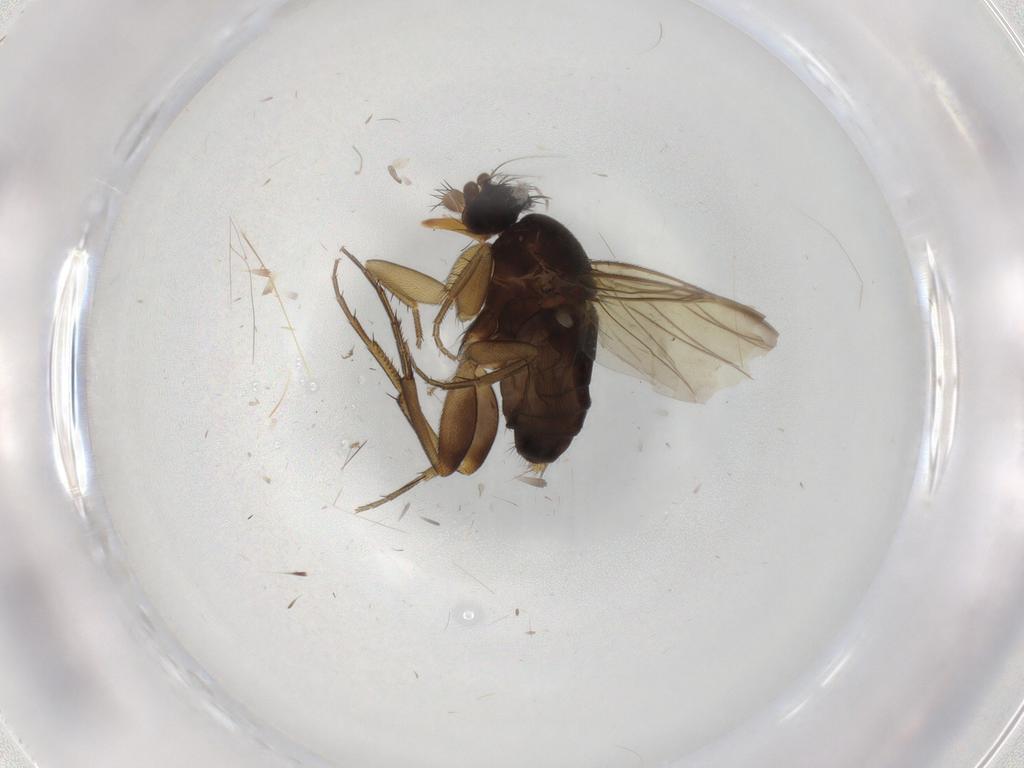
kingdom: Animalia
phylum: Arthropoda
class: Insecta
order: Diptera
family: Phoridae
